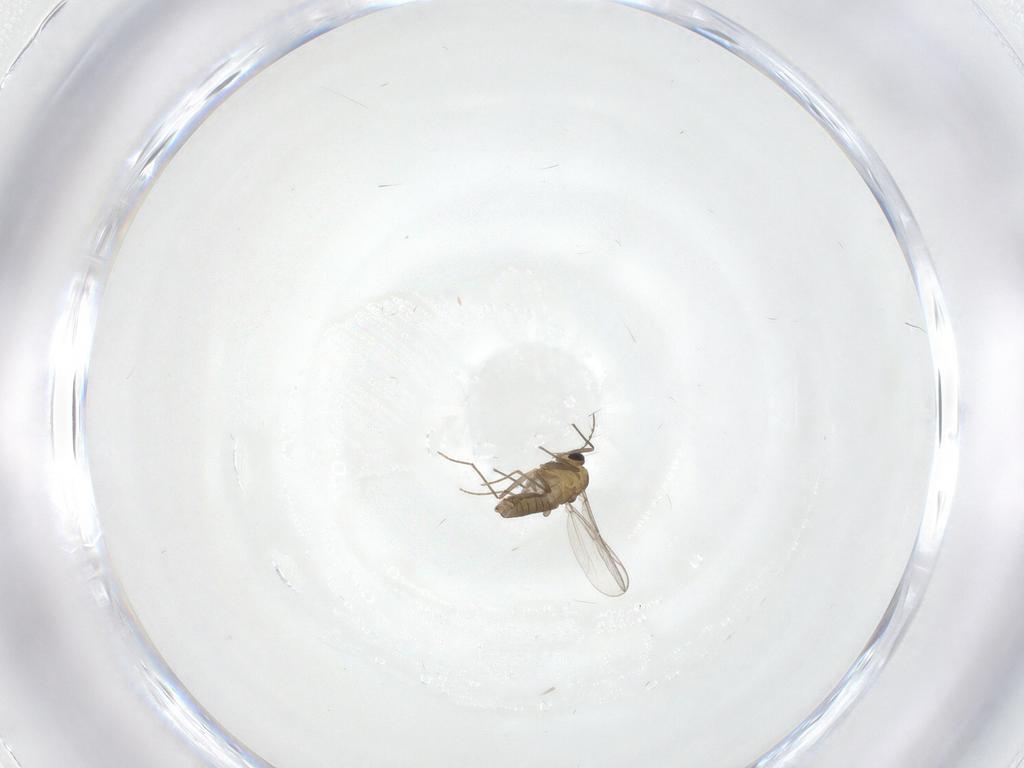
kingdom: Animalia
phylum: Arthropoda
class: Insecta
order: Diptera
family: Chironomidae
